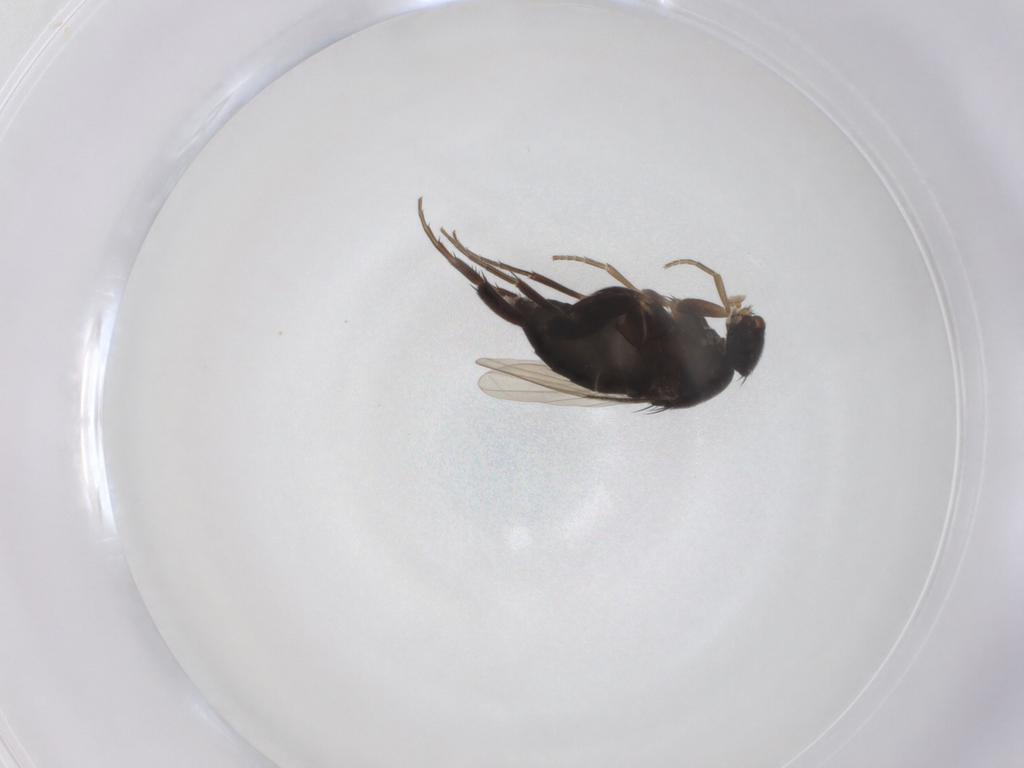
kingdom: Animalia
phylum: Arthropoda
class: Insecta
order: Diptera
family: Phoridae
